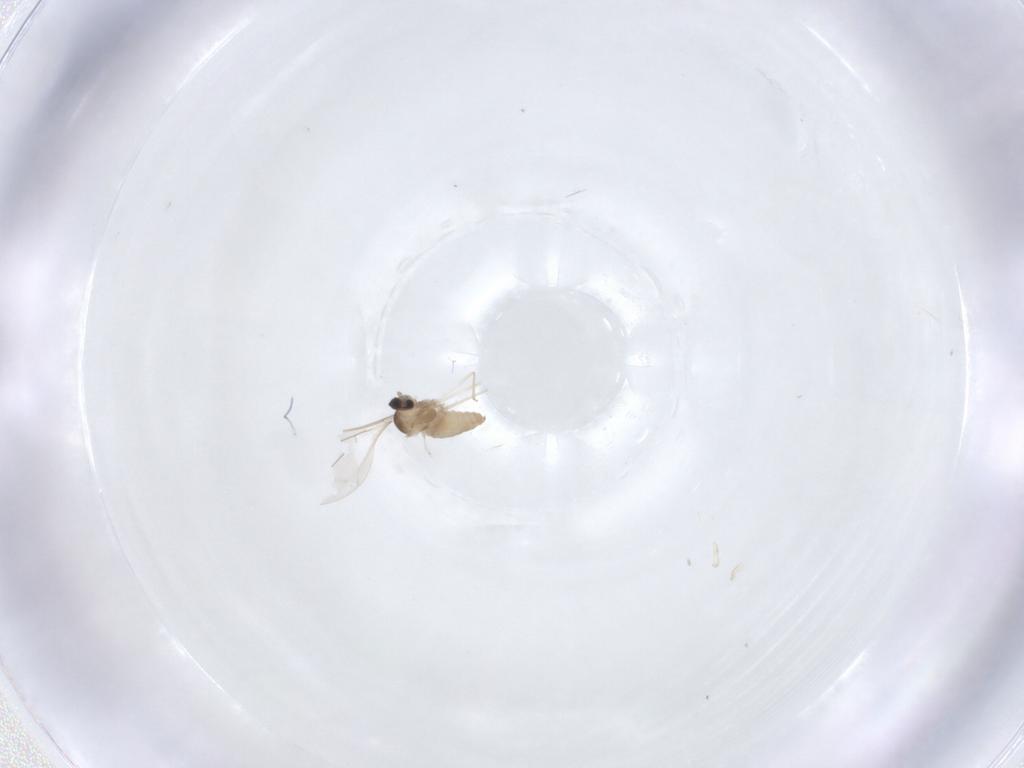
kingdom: Animalia
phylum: Arthropoda
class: Insecta
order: Diptera
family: Cecidomyiidae
